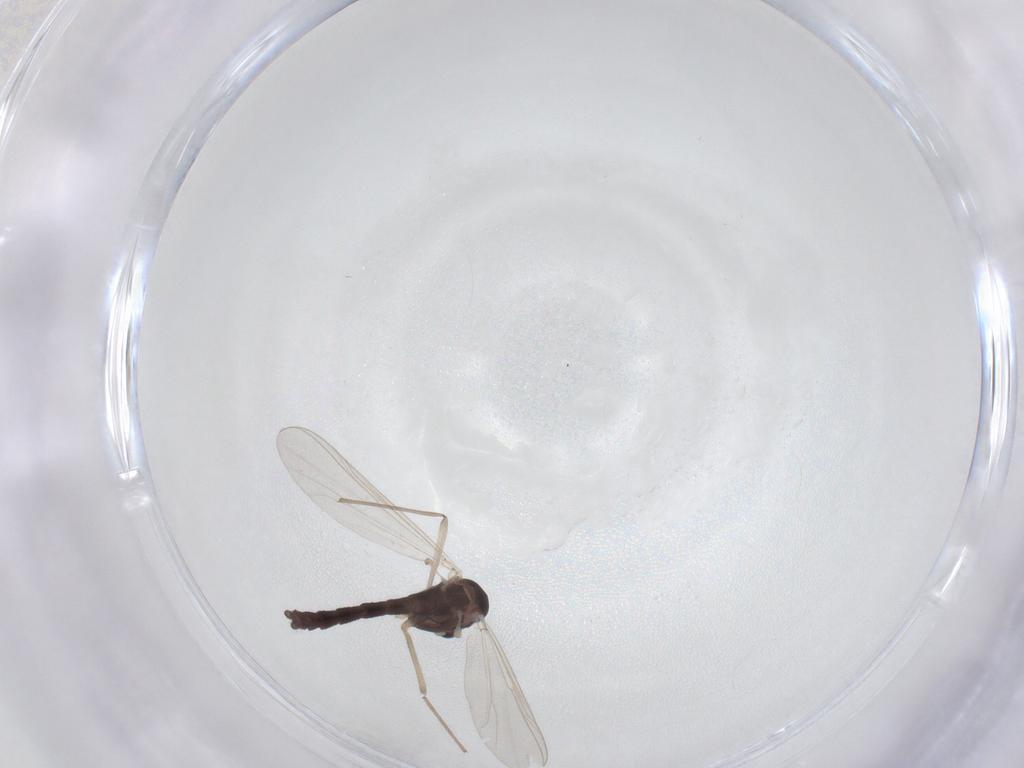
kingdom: Animalia
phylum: Arthropoda
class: Insecta
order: Diptera
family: Chironomidae
